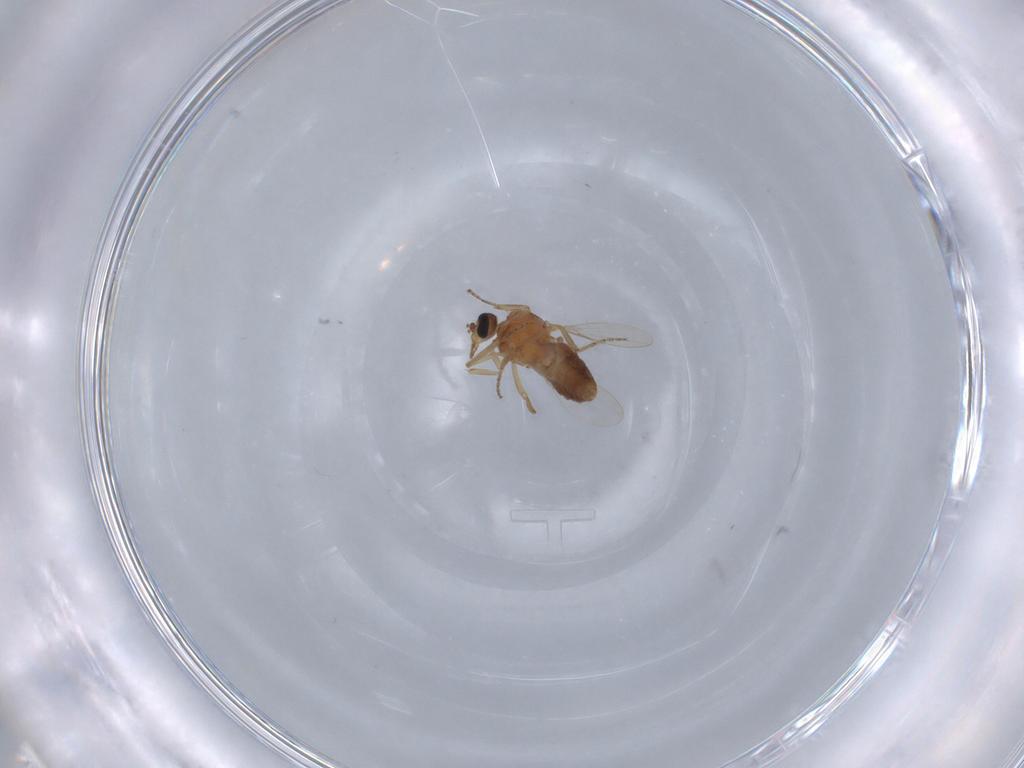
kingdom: Animalia
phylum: Arthropoda
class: Insecta
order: Diptera
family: Ceratopogonidae
